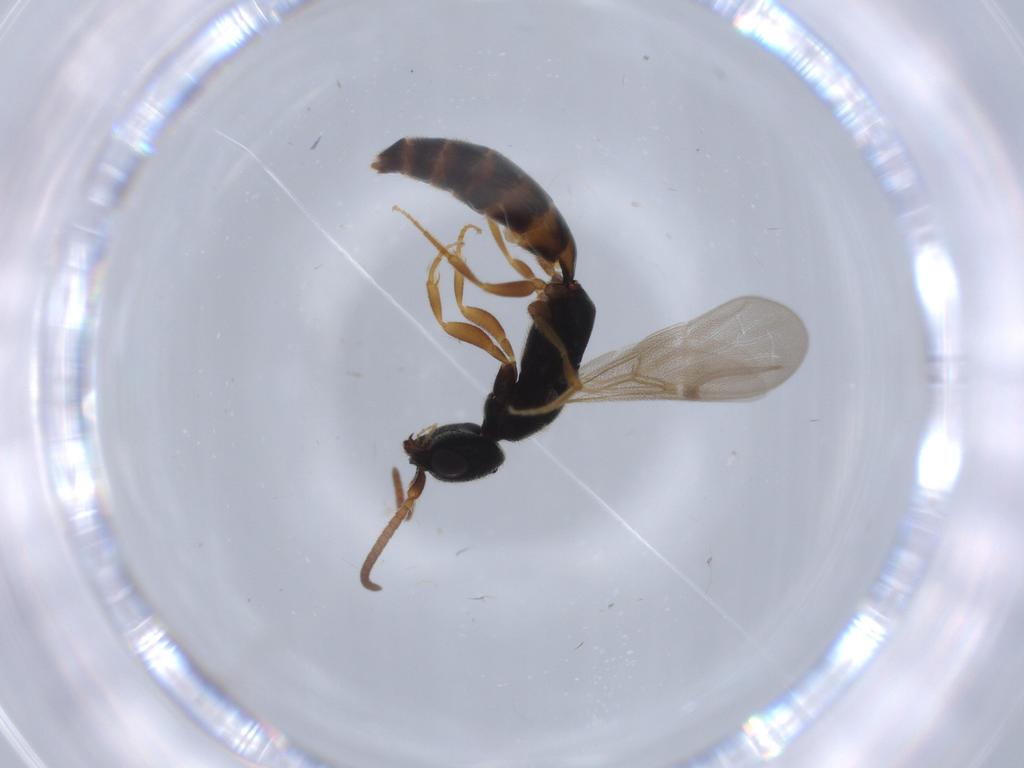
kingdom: Animalia
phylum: Arthropoda
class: Insecta
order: Hymenoptera
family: Bethylidae
